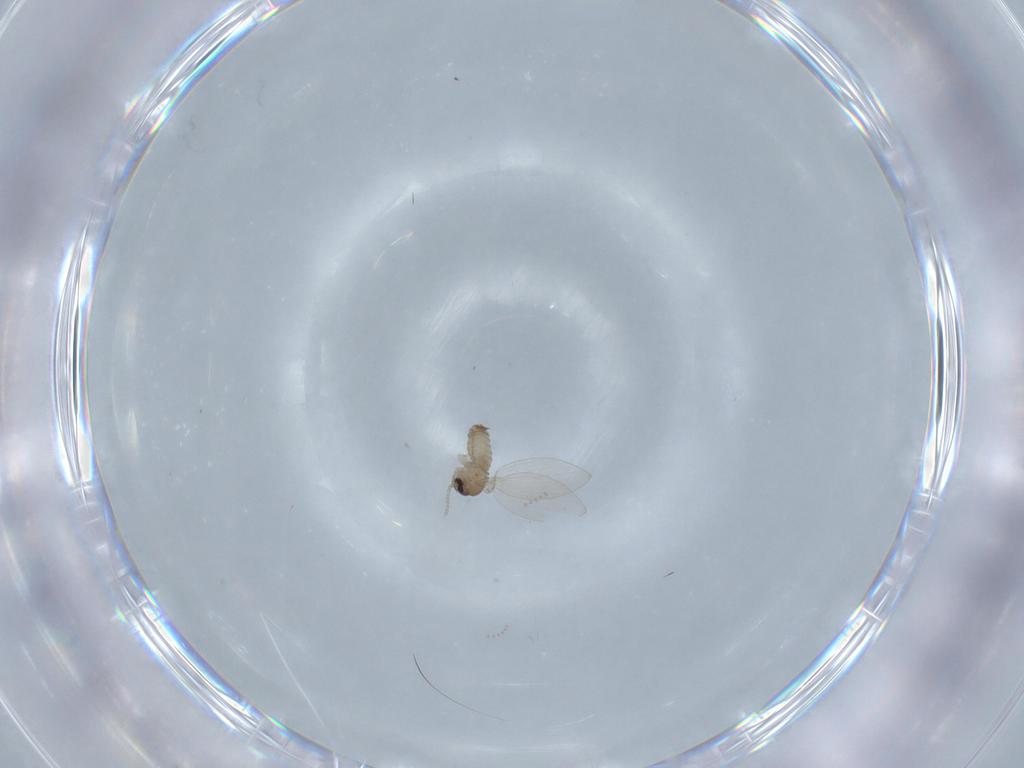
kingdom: Animalia
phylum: Arthropoda
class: Insecta
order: Diptera
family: Psychodidae
